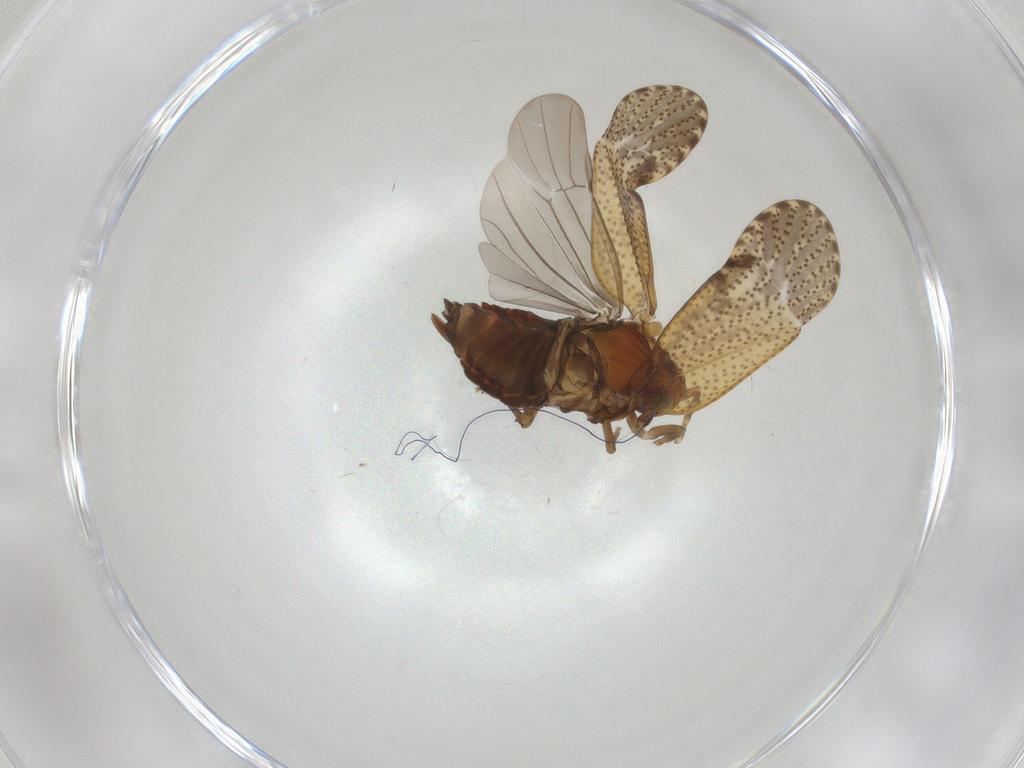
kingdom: Animalia
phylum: Arthropoda
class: Insecta
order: Hemiptera
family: Delphacidae
